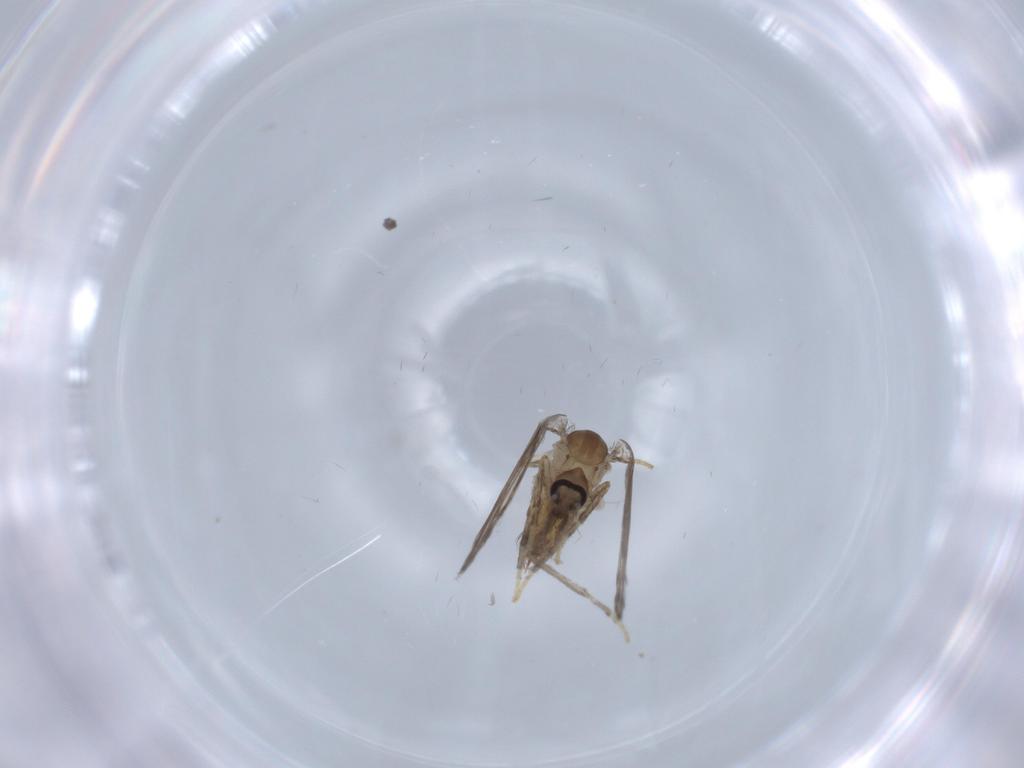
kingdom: Animalia
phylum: Arthropoda
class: Insecta
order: Diptera
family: Psychodidae
